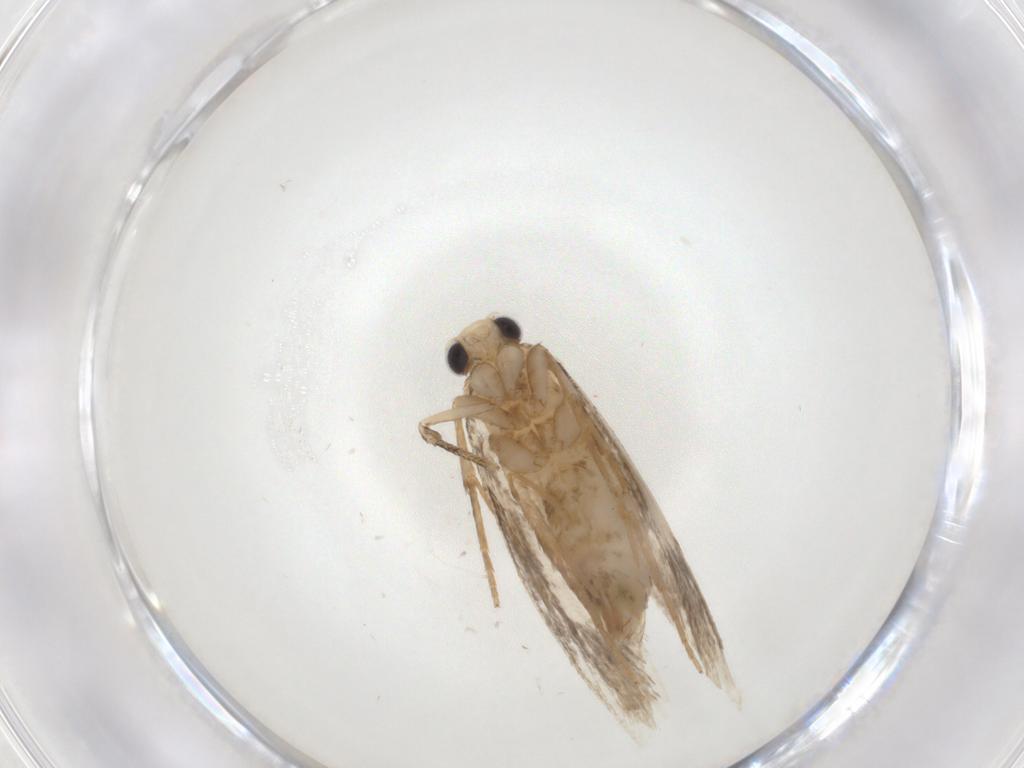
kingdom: Animalia
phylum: Arthropoda
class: Insecta
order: Lepidoptera
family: Tineidae
